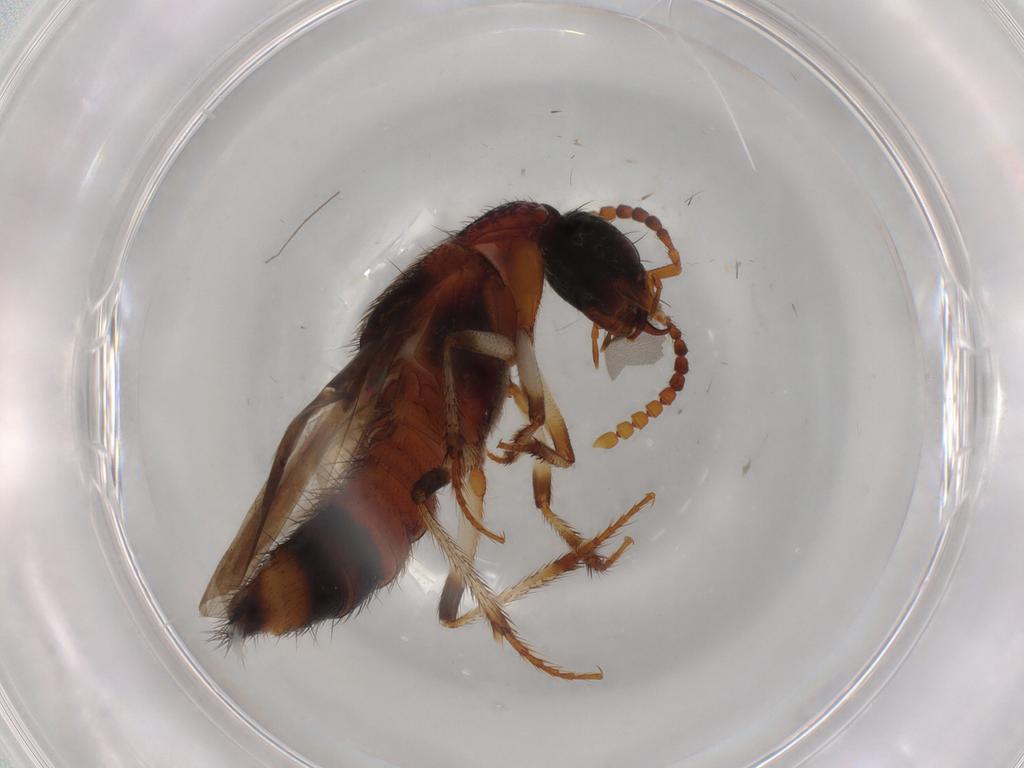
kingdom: Animalia
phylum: Arthropoda
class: Insecta
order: Coleoptera
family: Staphylinidae
